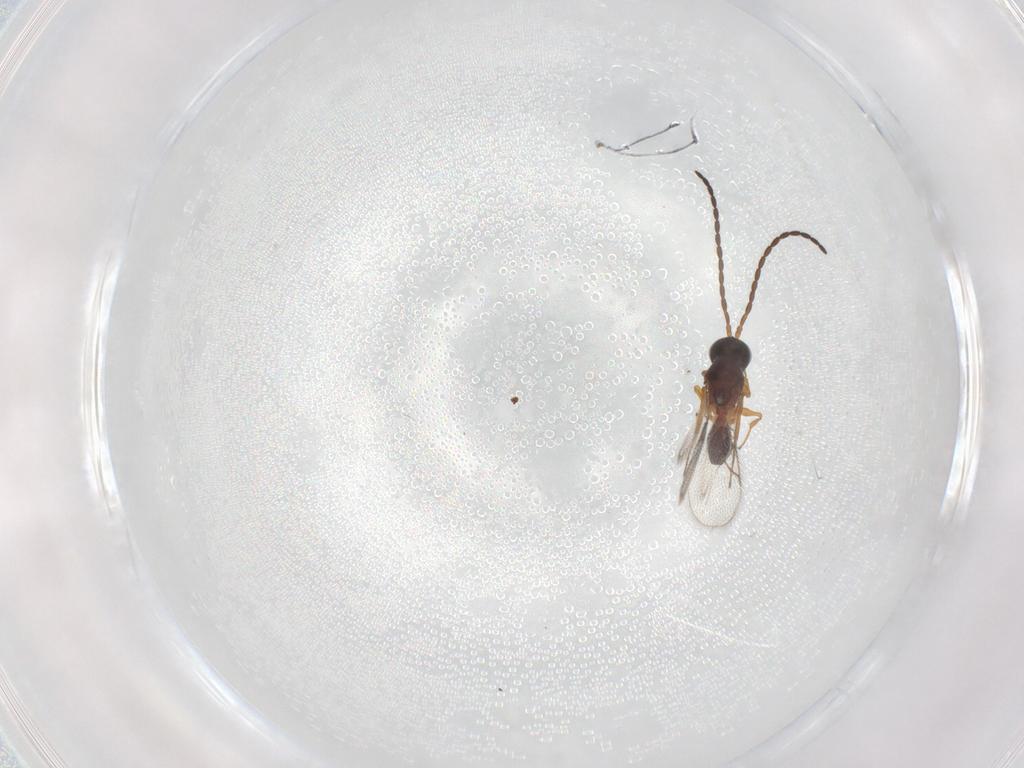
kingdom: Animalia
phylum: Arthropoda
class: Insecta
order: Hymenoptera
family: Figitidae
